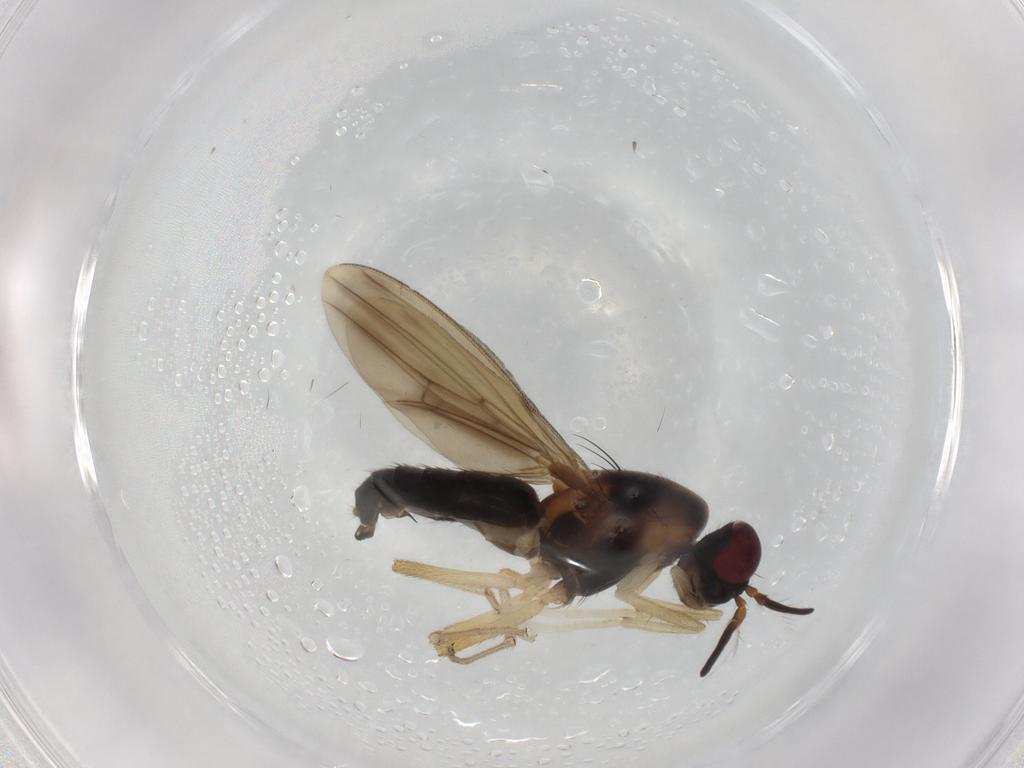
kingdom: Animalia
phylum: Arthropoda
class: Insecta
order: Diptera
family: Lauxaniidae
